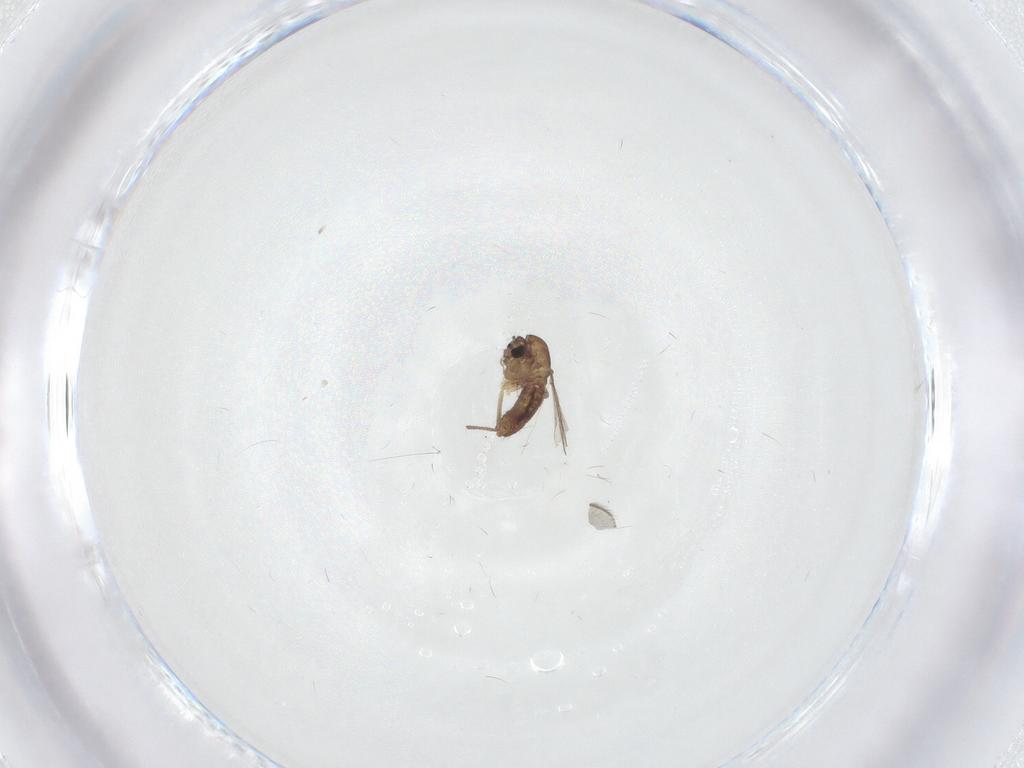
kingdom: Animalia
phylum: Arthropoda
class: Insecta
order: Diptera
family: Chironomidae
